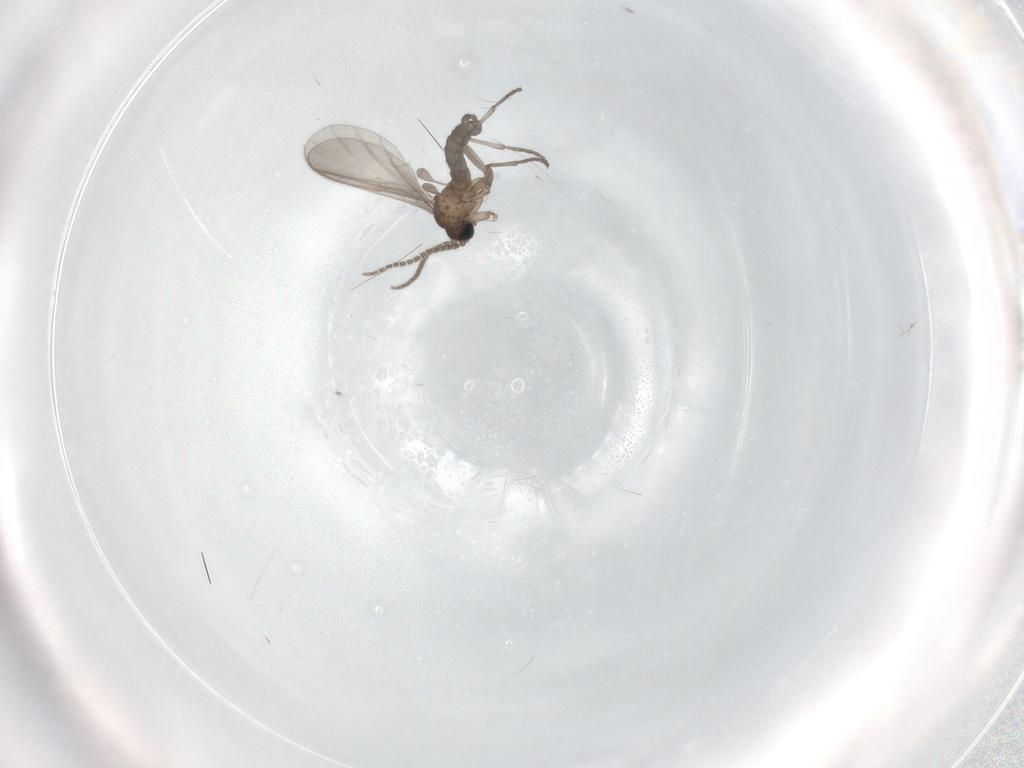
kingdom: Animalia
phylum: Arthropoda
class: Insecta
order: Diptera
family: Sciaridae
